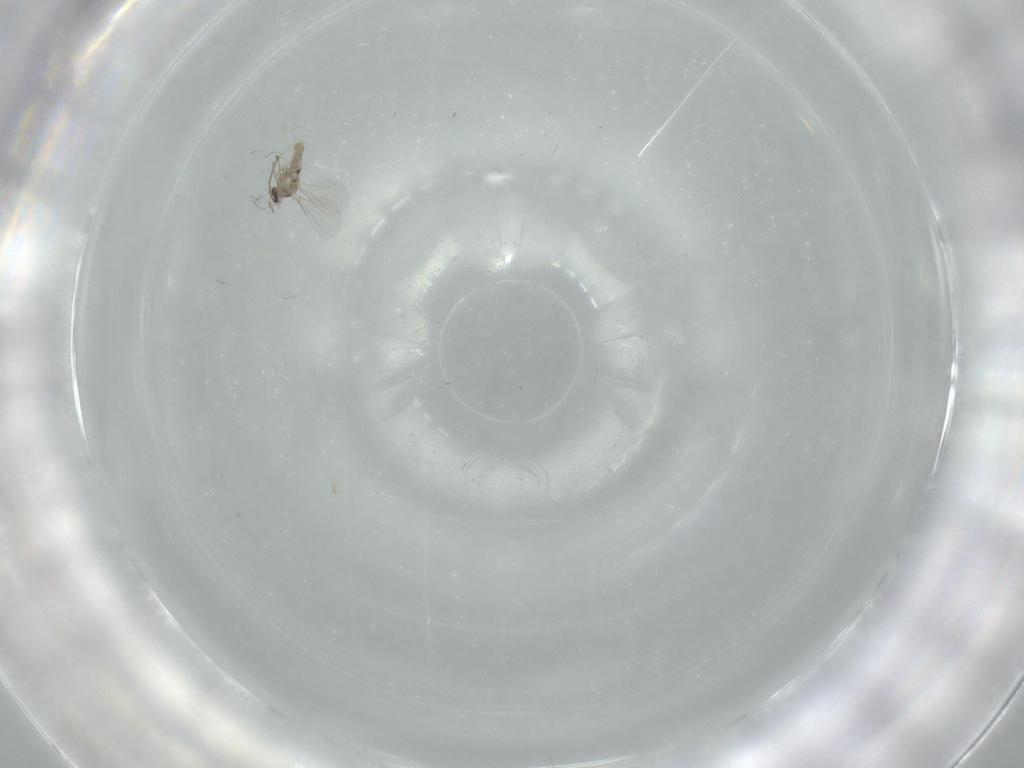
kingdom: Animalia
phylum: Arthropoda
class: Insecta
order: Diptera
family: Cecidomyiidae
